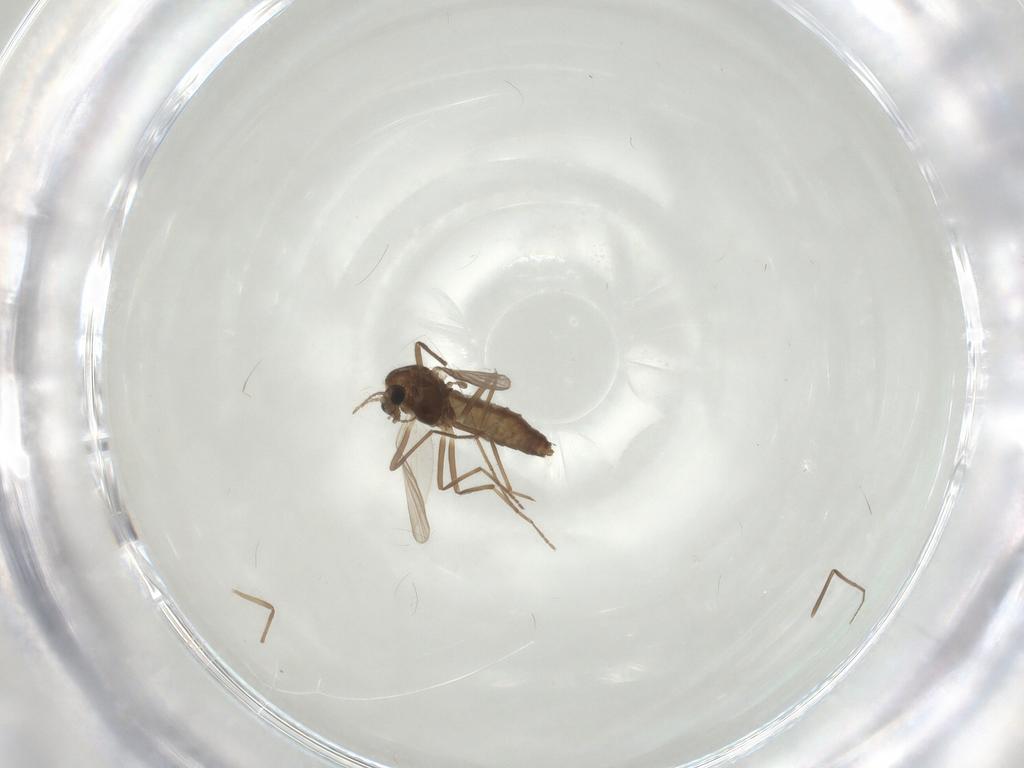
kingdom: Animalia
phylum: Arthropoda
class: Insecta
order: Diptera
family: Chironomidae
